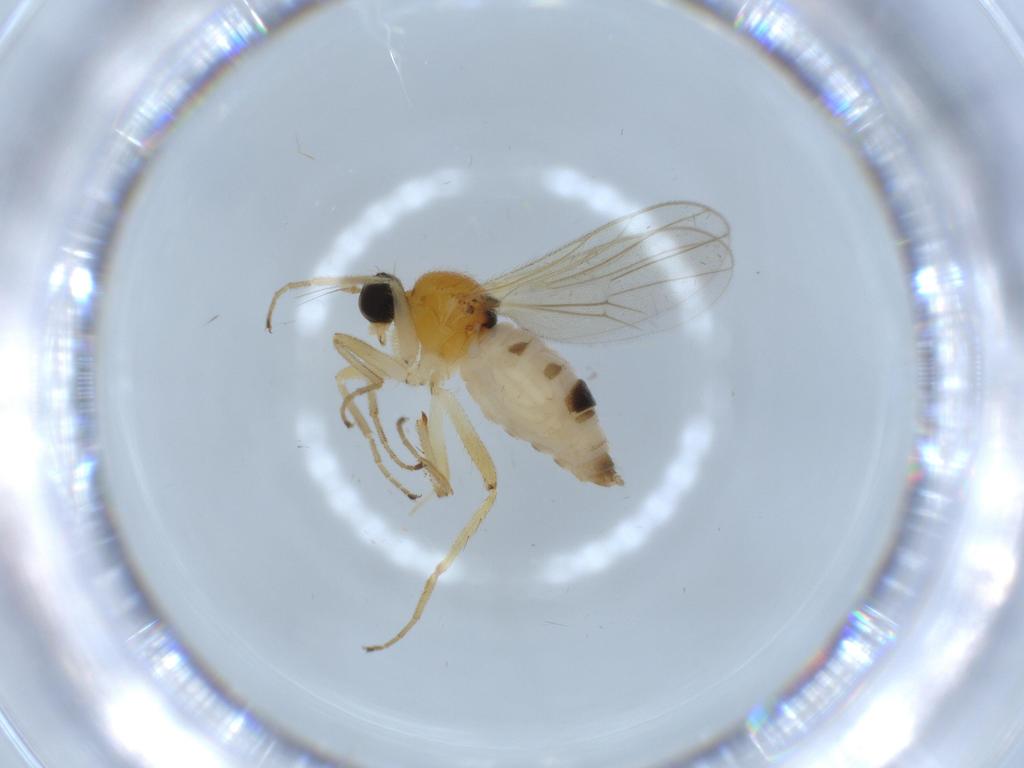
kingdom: Animalia
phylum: Arthropoda
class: Insecta
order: Diptera
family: Hybotidae
